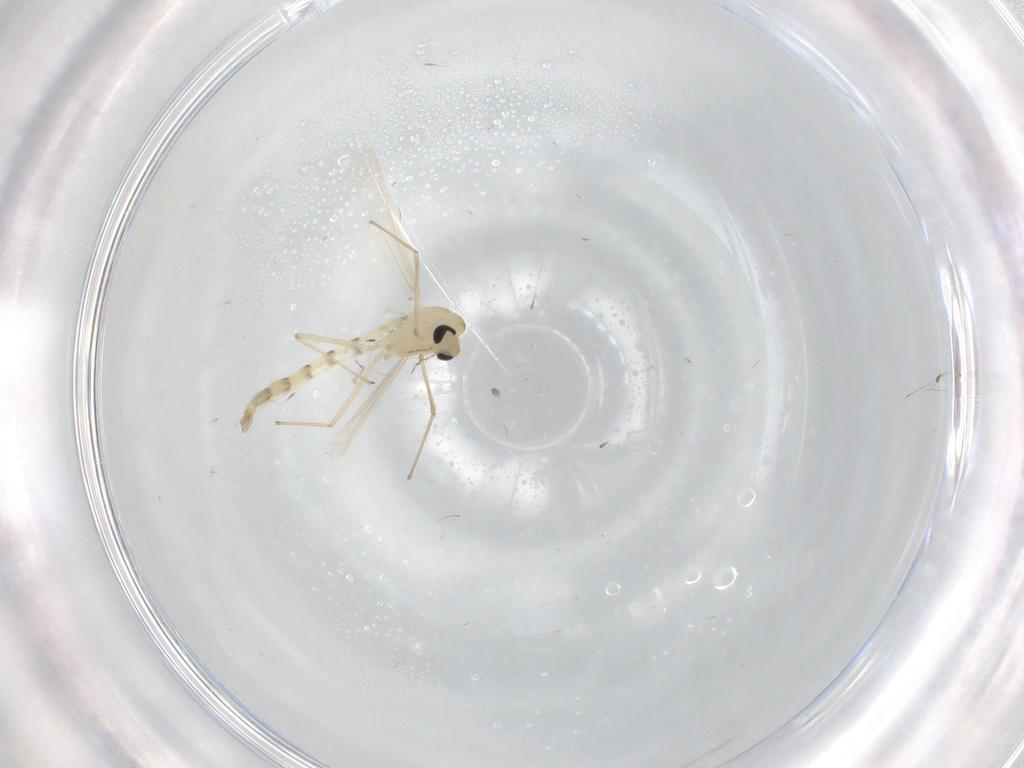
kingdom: Animalia
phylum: Arthropoda
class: Insecta
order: Diptera
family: Chironomidae
